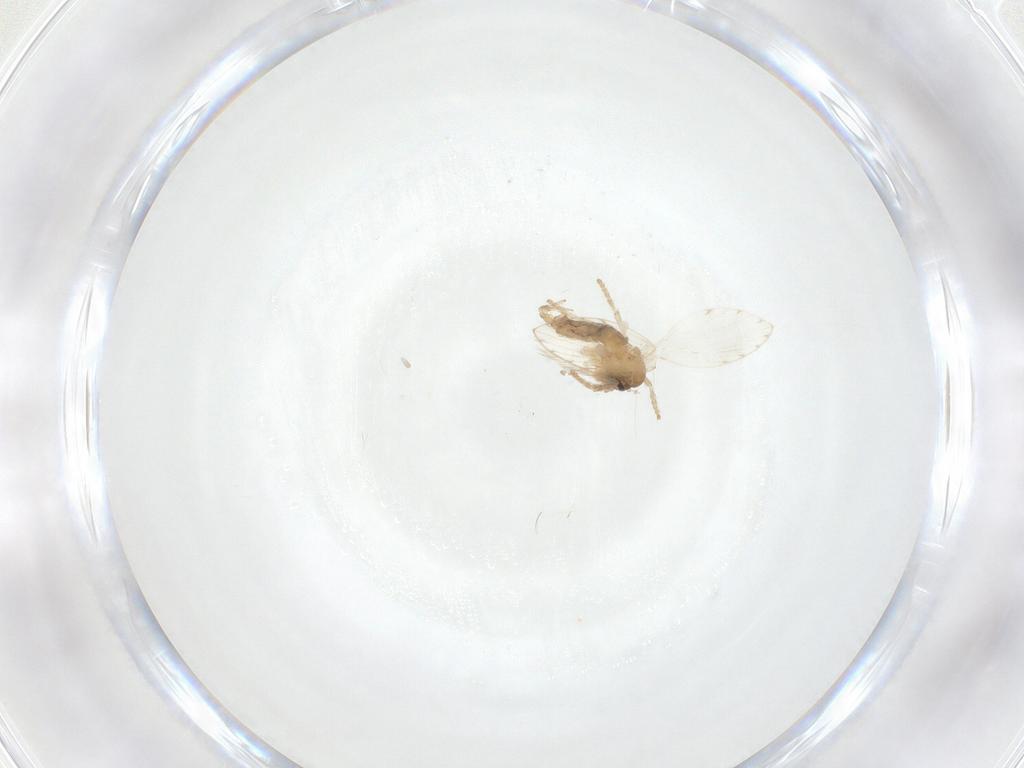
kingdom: Animalia
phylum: Arthropoda
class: Insecta
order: Diptera
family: Psychodidae
